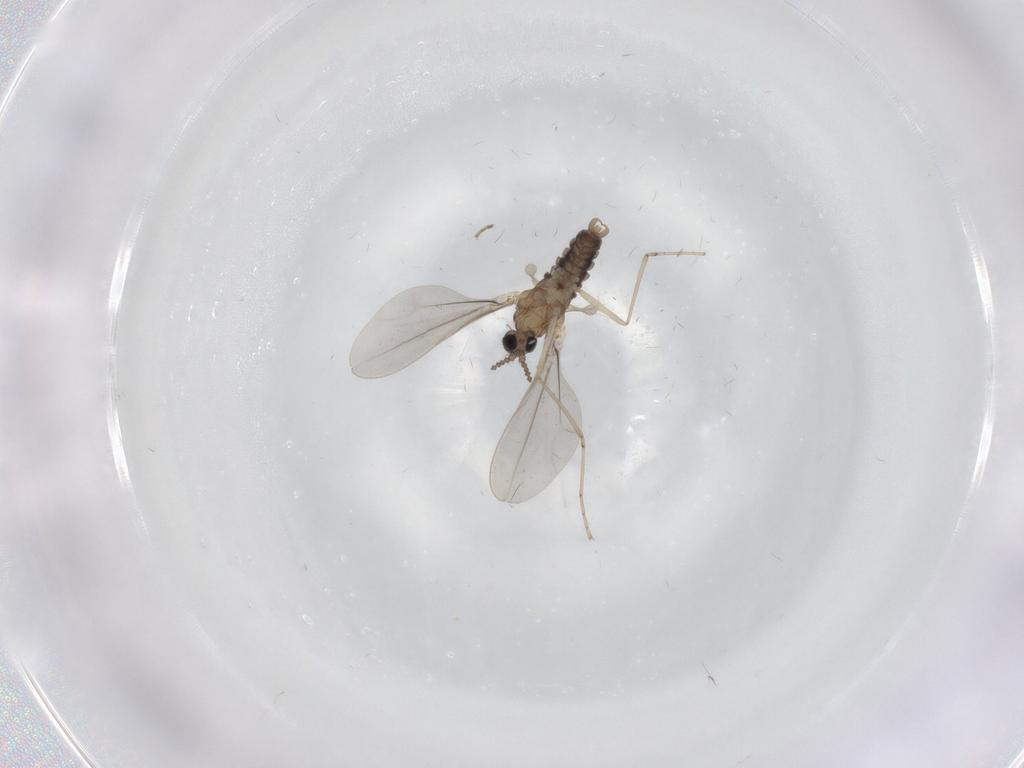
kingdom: Animalia
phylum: Arthropoda
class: Insecta
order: Diptera
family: Cecidomyiidae
